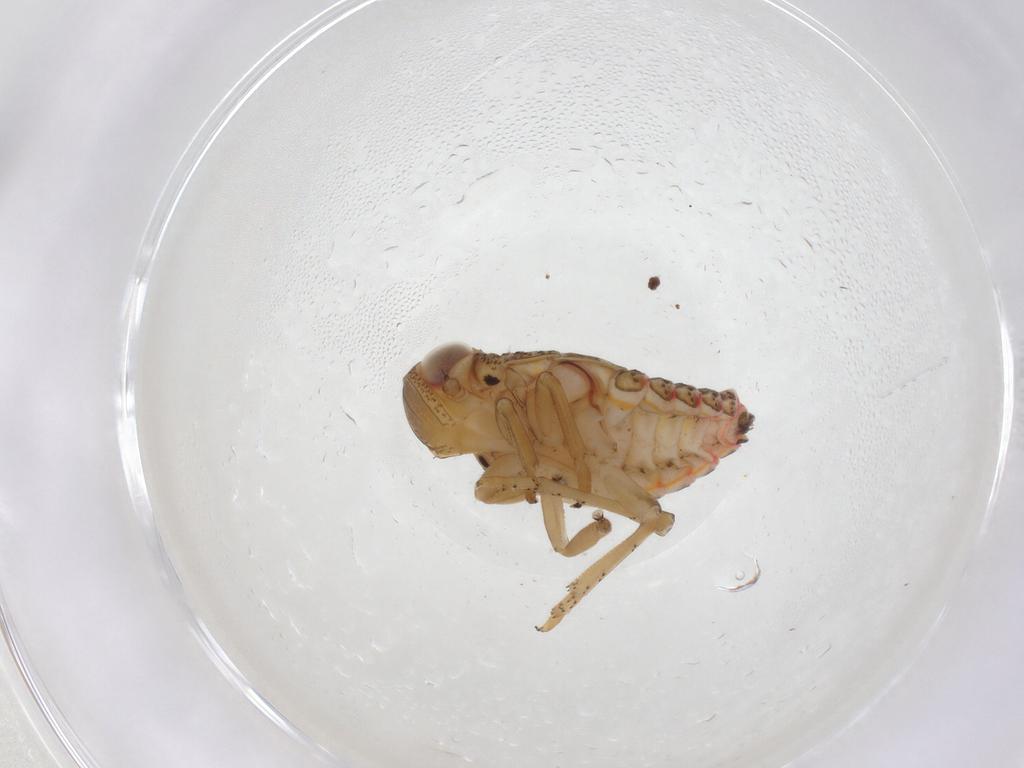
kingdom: Animalia
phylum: Arthropoda
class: Insecta
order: Hemiptera
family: Issidae
